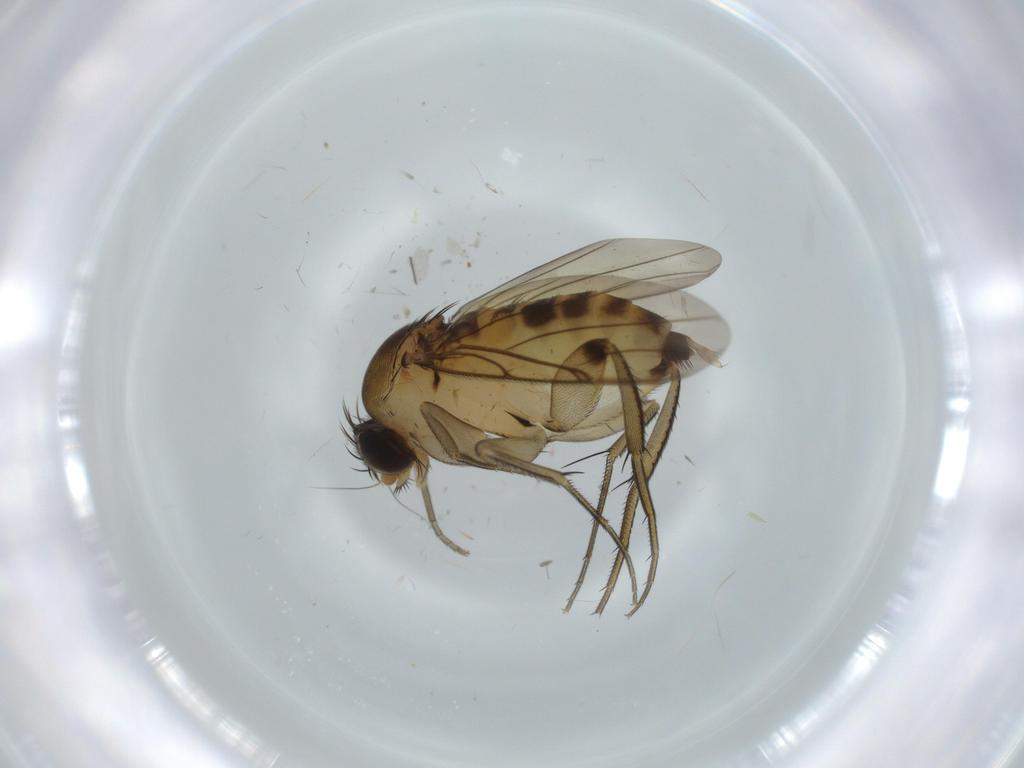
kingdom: Animalia
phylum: Arthropoda
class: Insecta
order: Diptera
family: Phoridae
